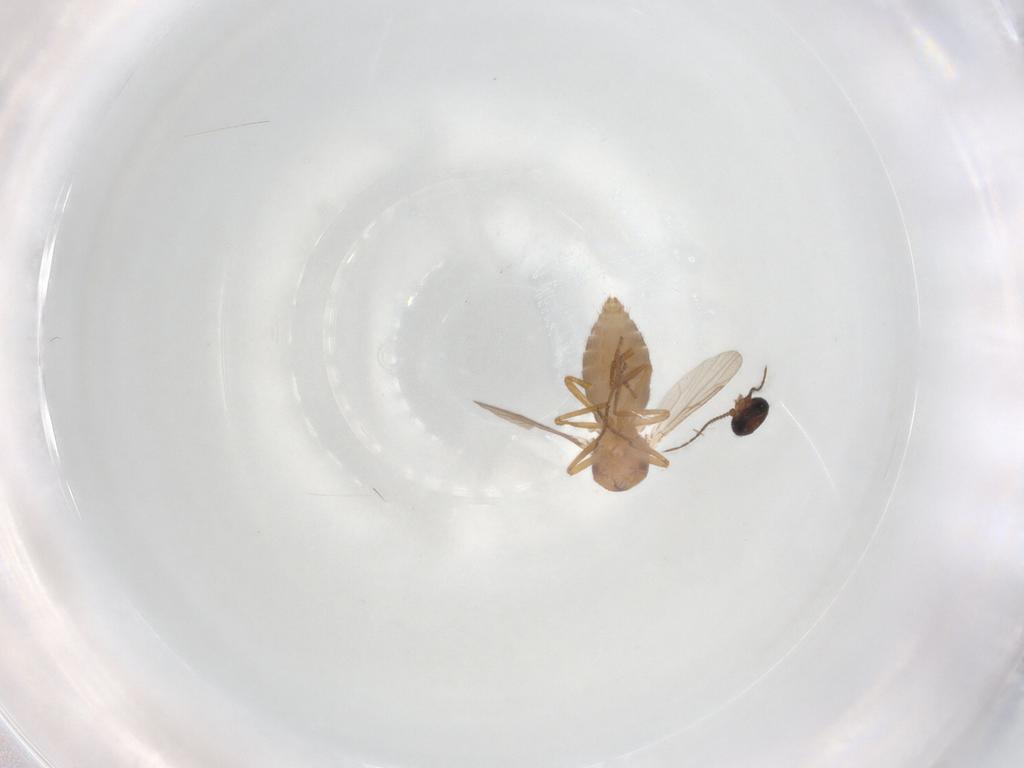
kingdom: Animalia
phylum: Arthropoda
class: Insecta
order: Diptera
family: Ceratopogonidae
